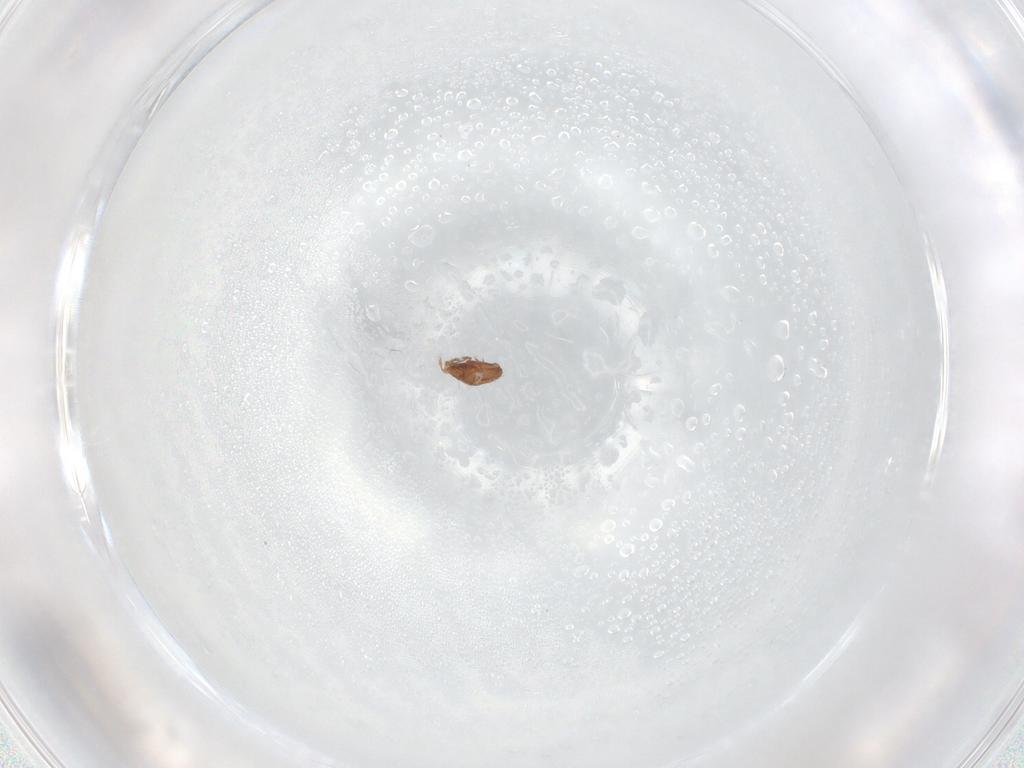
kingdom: Animalia
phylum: Arthropoda
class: Arachnida
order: Sarcoptiformes
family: Oribatulidae
